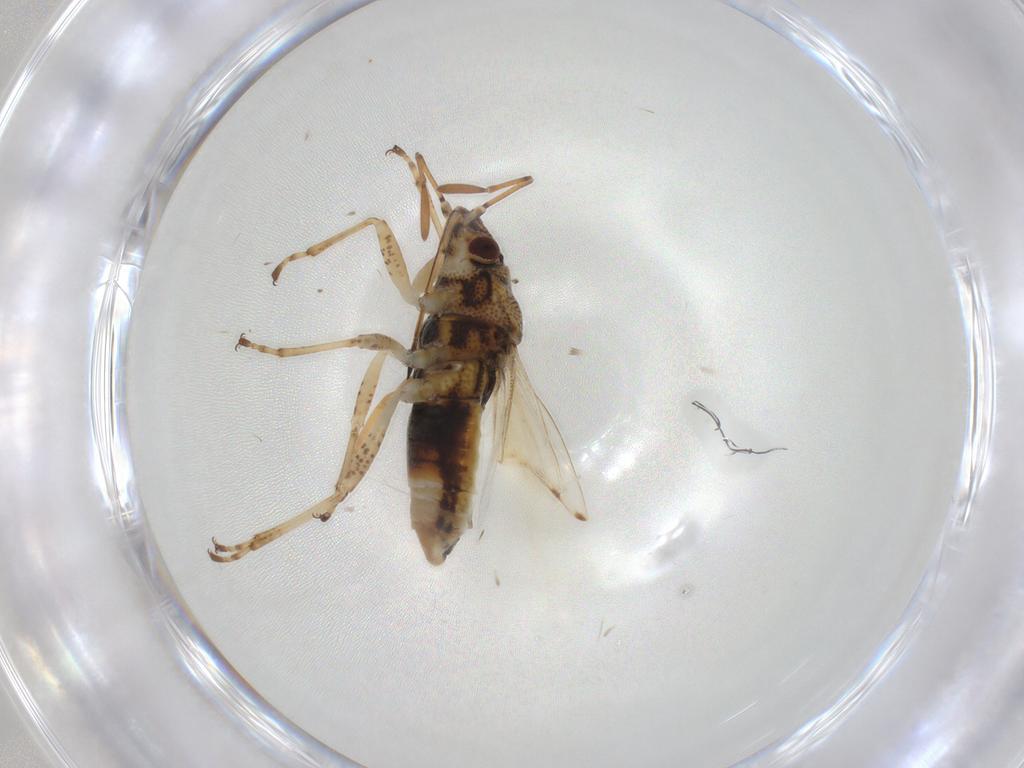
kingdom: Animalia
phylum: Arthropoda
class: Insecta
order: Hemiptera
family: Lygaeidae
